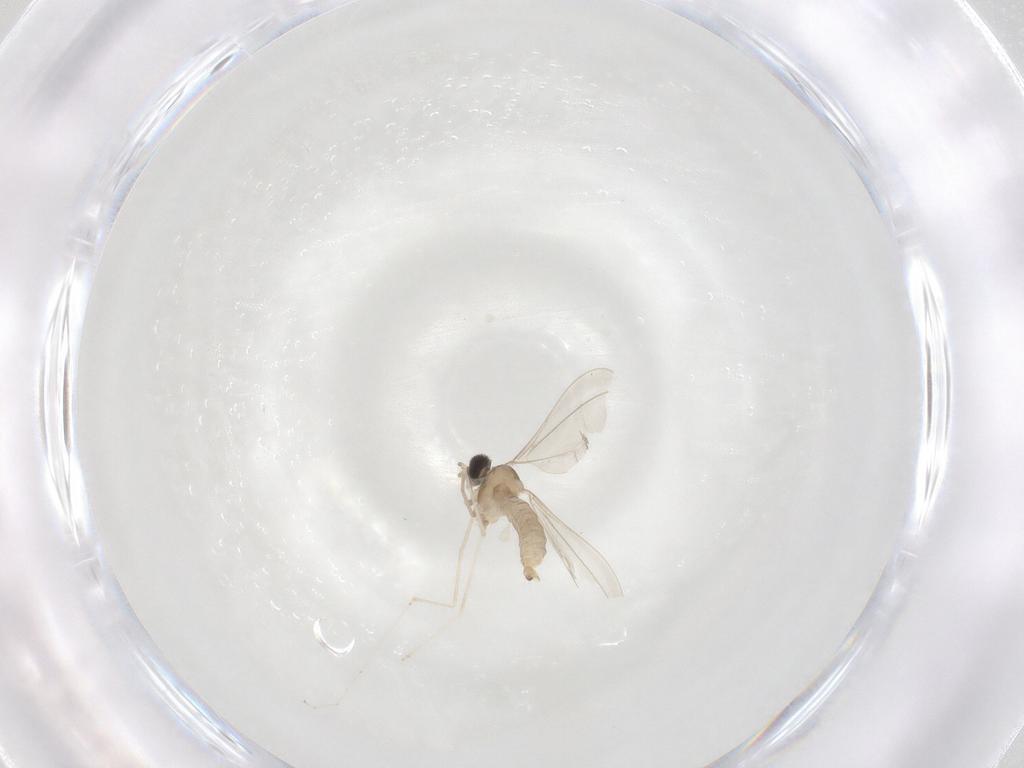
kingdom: Animalia
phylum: Arthropoda
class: Insecta
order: Diptera
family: Cecidomyiidae
